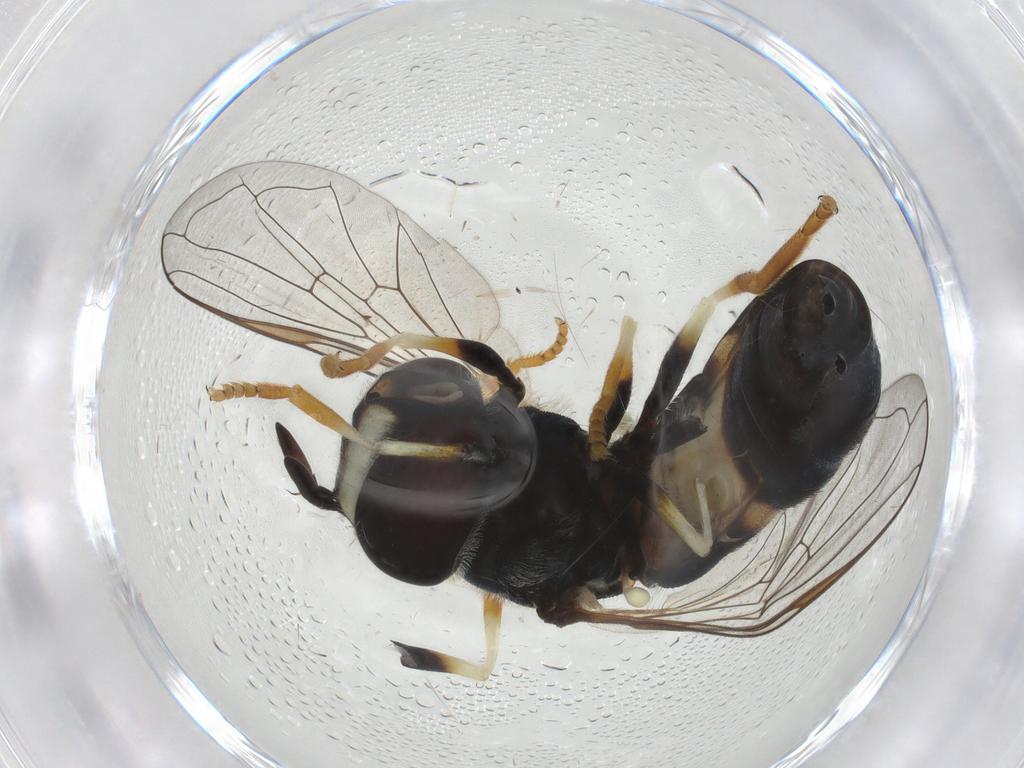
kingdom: Animalia
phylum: Arthropoda
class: Insecta
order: Diptera
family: Syrphidae
